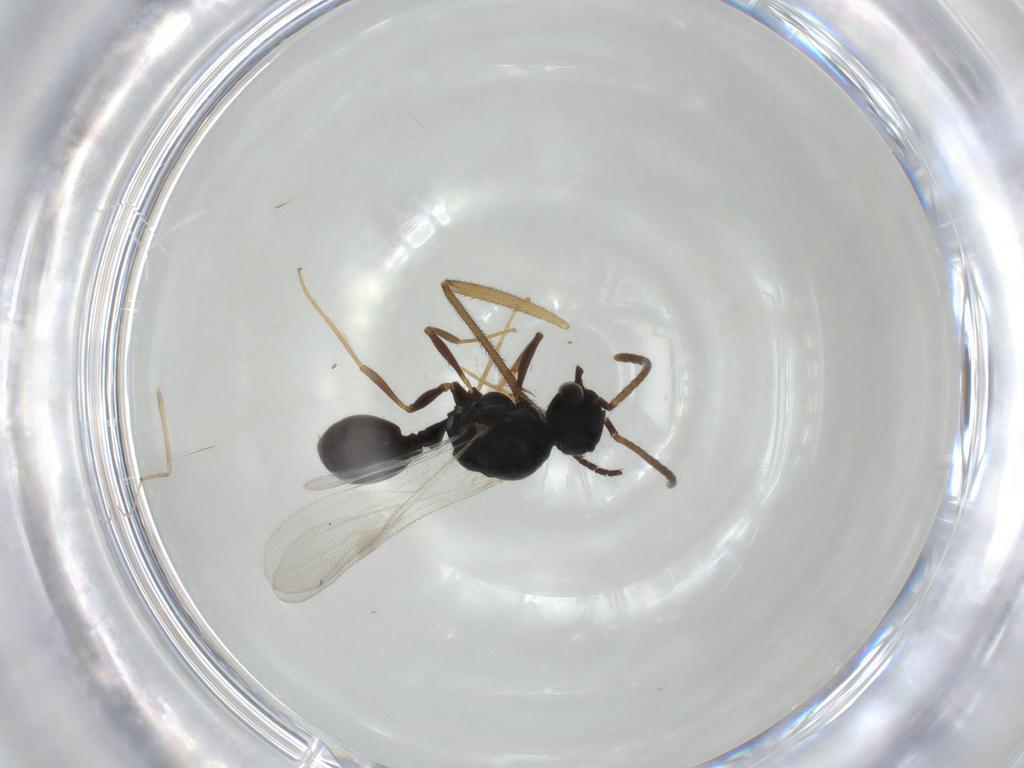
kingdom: Animalia
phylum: Arthropoda
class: Insecta
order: Hymenoptera
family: Formicidae
